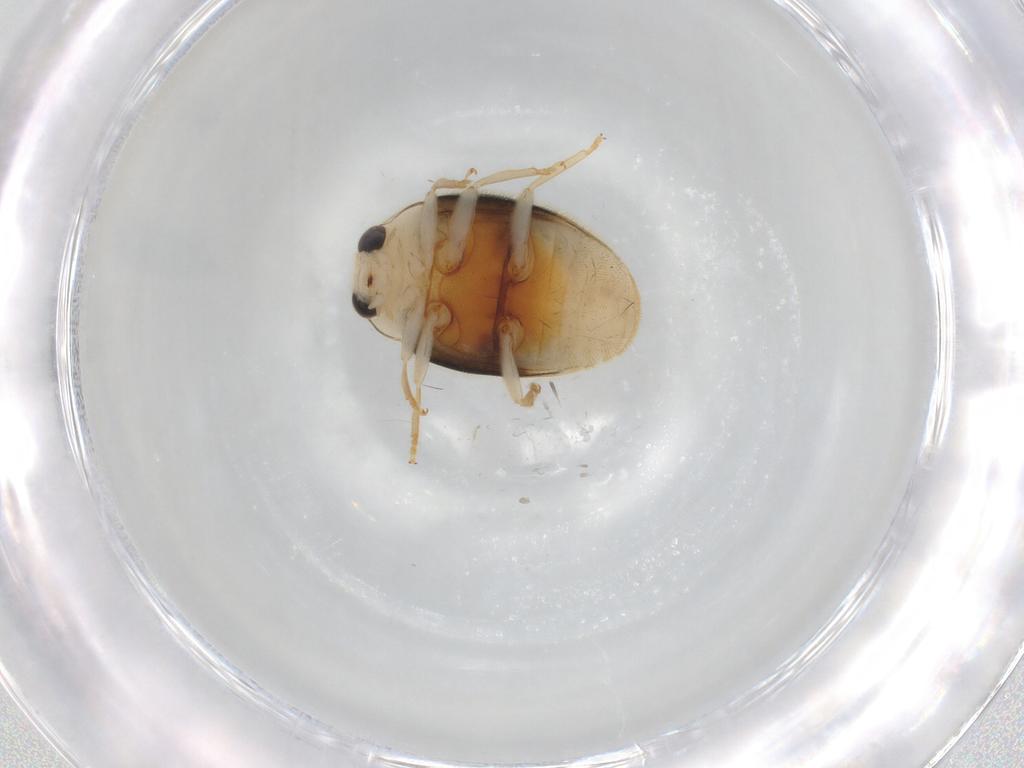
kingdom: Animalia
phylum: Arthropoda
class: Insecta
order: Coleoptera
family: Coccinellidae
